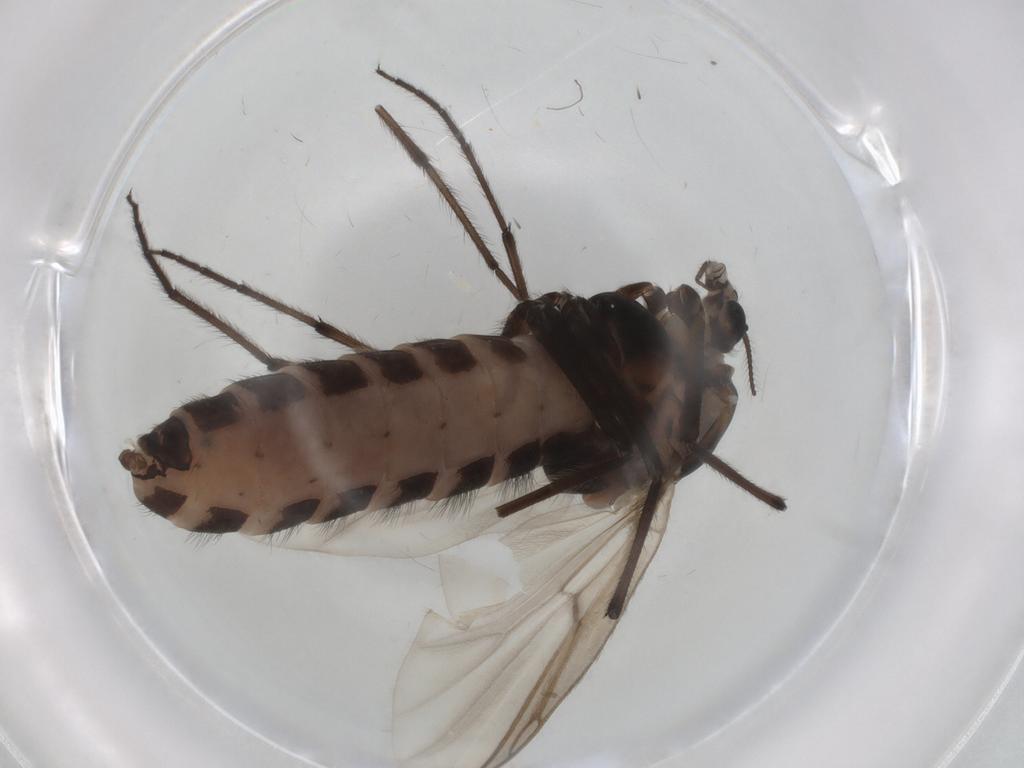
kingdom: Animalia
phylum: Arthropoda
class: Insecta
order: Diptera
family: Chironomidae
